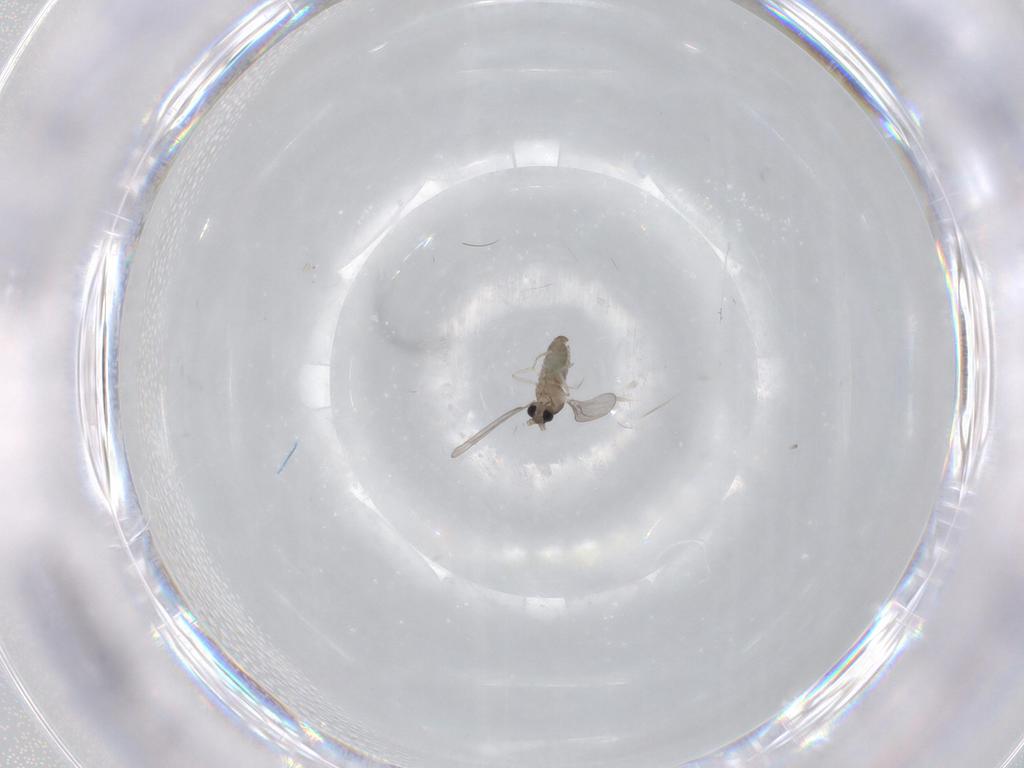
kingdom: Animalia
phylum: Arthropoda
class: Insecta
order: Diptera
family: Cecidomyiidae
